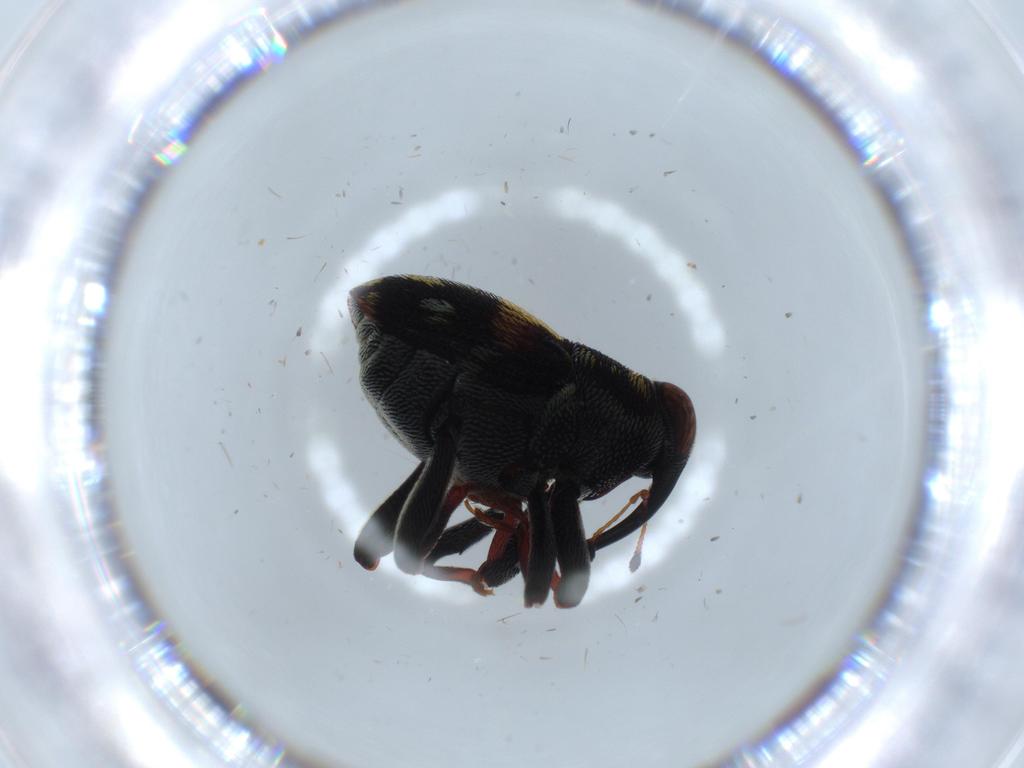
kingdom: Animalia
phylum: Arthropoda
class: Insecta
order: Coleoptera
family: Curculionidae
